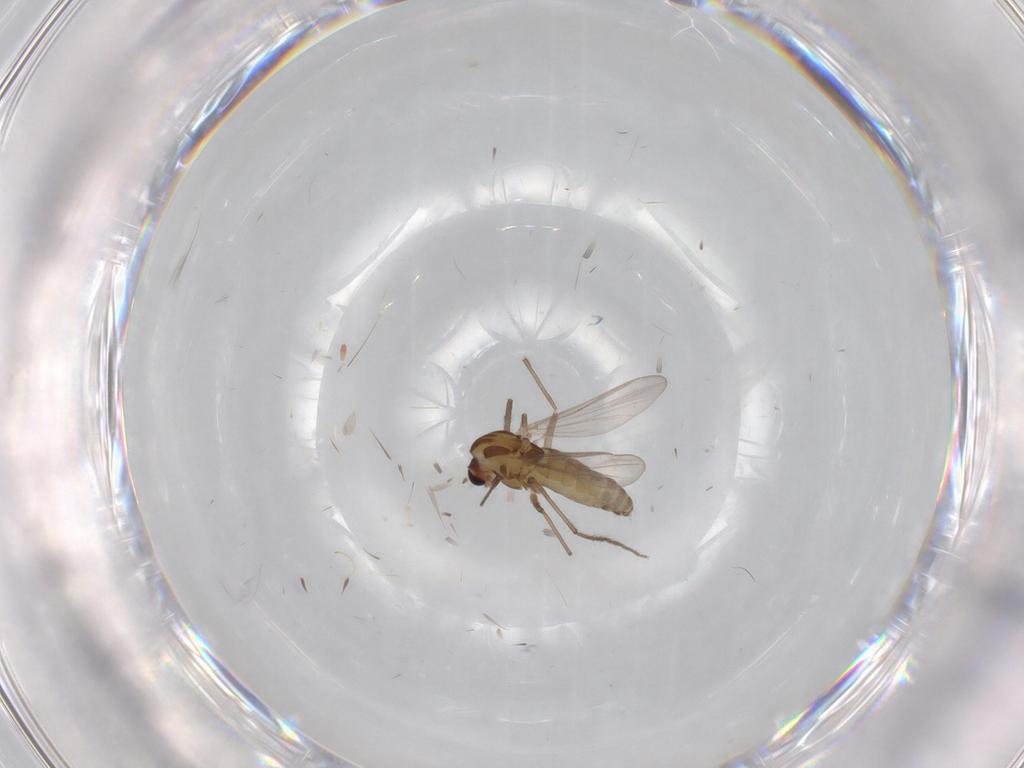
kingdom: Animalia
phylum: Arthropoda
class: Insecta
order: Diptera
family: Chironomidae
